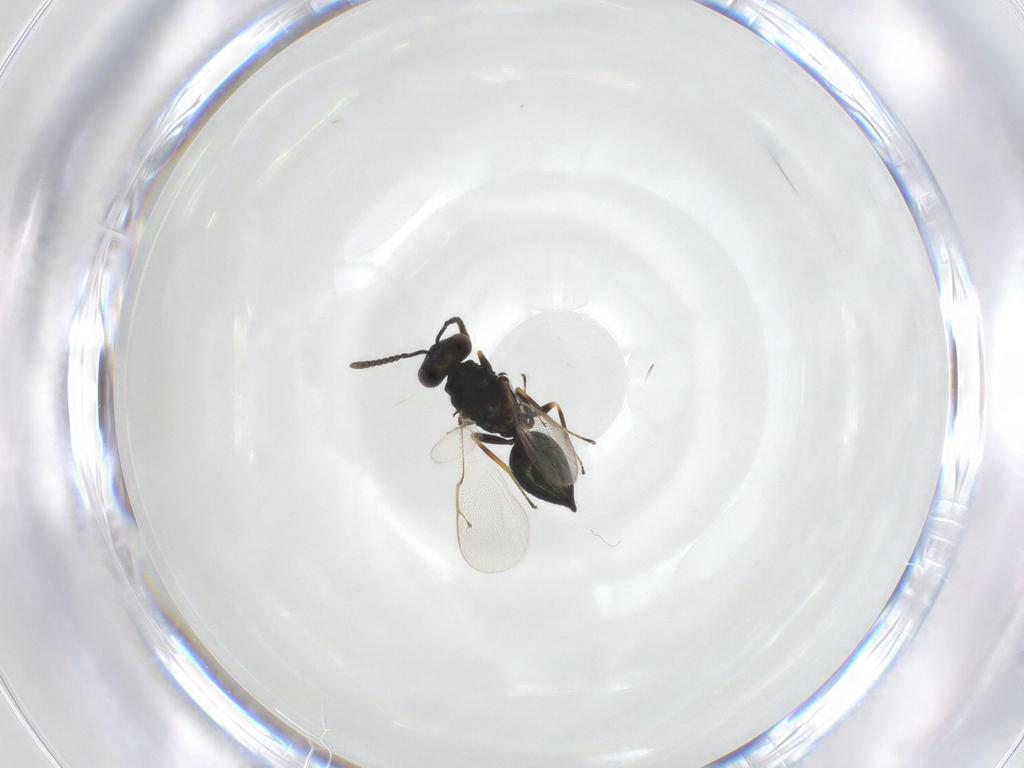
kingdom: Animalia
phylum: Arthropoda
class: Insecta
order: Hymenoptera
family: Pteromalidae
